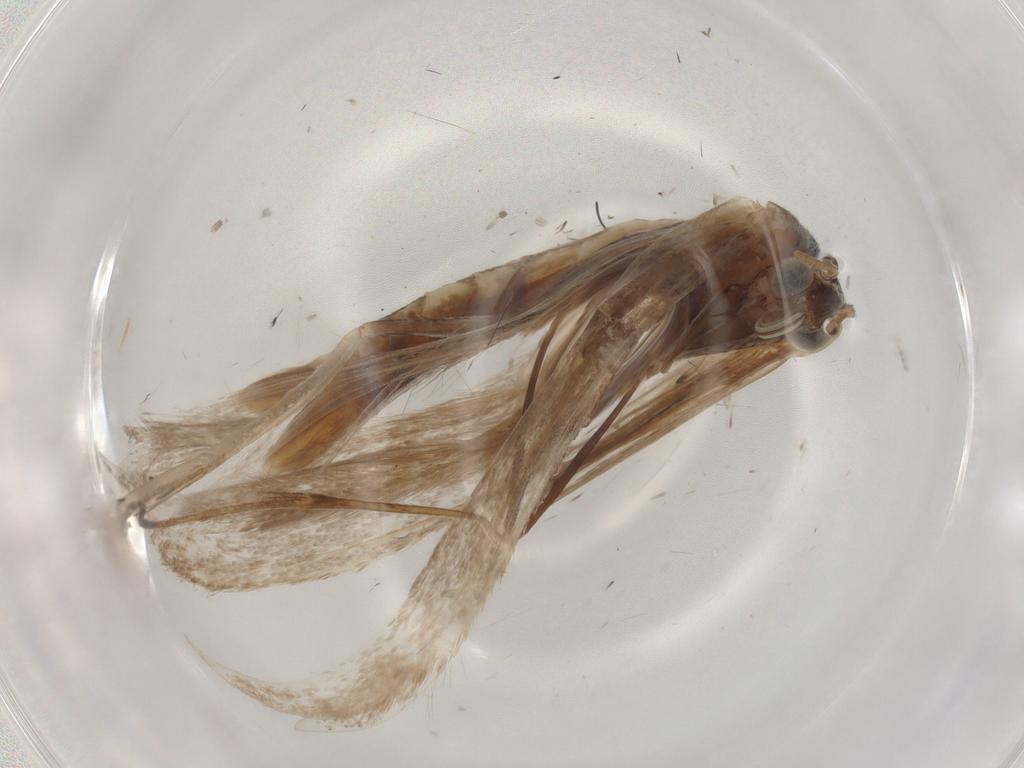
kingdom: Animalia
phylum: Arthropoda
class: Insecta
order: Lepidoptera
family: Pterophoridae
